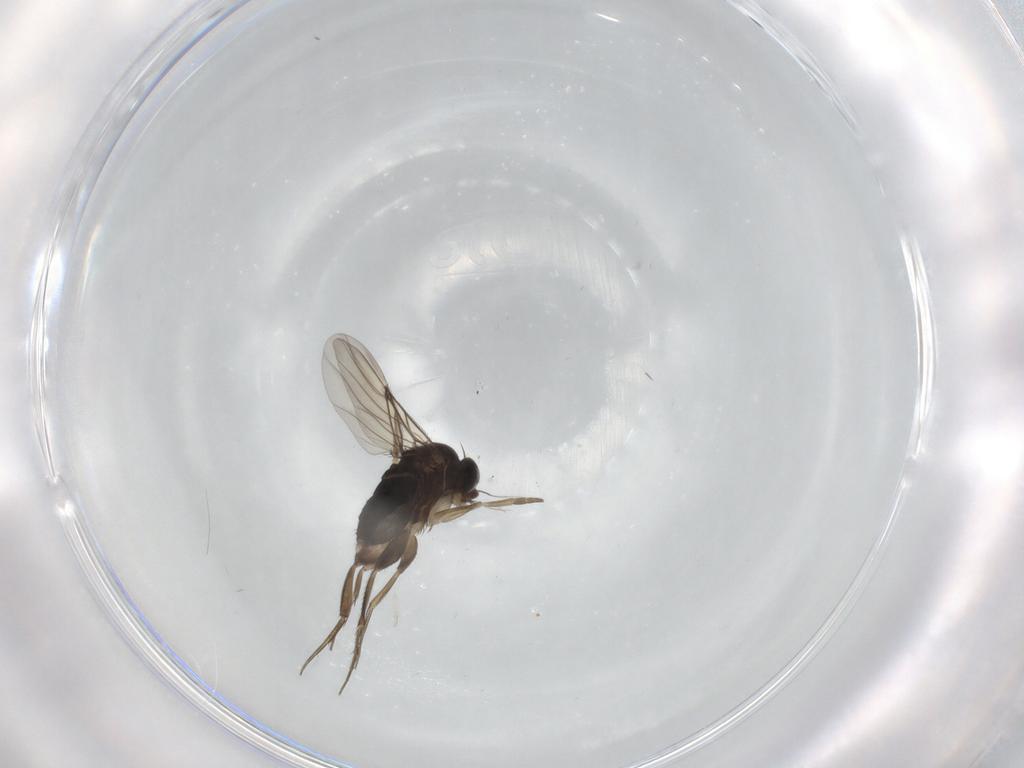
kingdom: Animalia
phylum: Arthropoda
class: Insecta
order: Diptera
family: Phoridae
